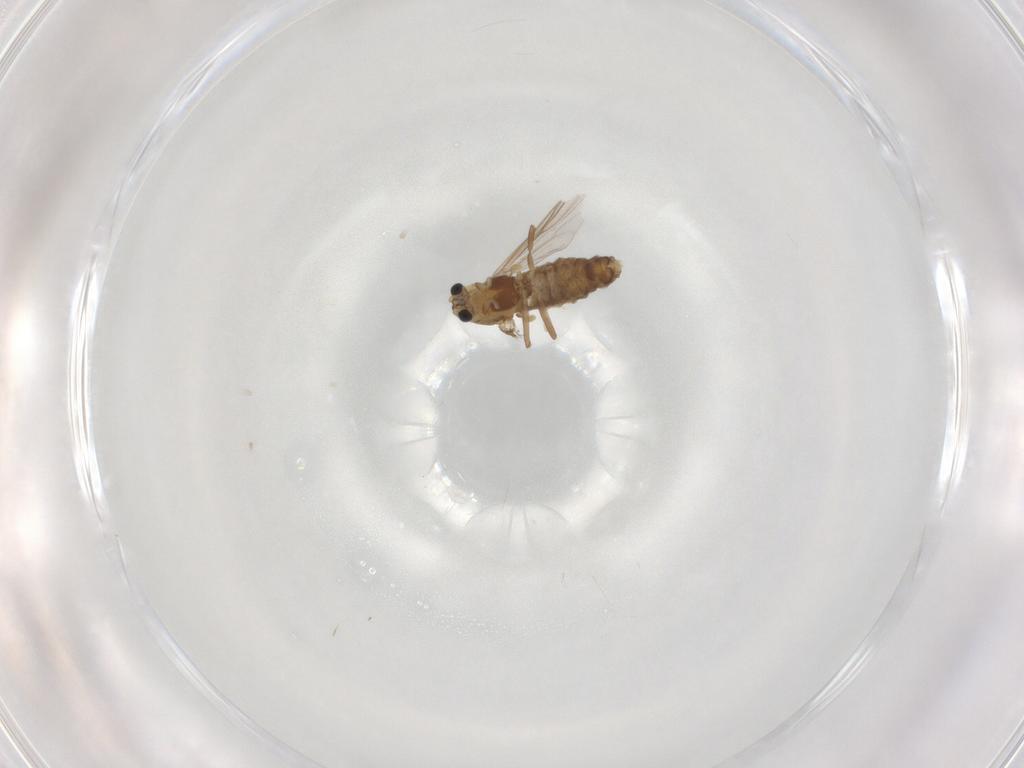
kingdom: Animalia
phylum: Arthropoda
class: Insecta
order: Diptera
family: Chironomidae
